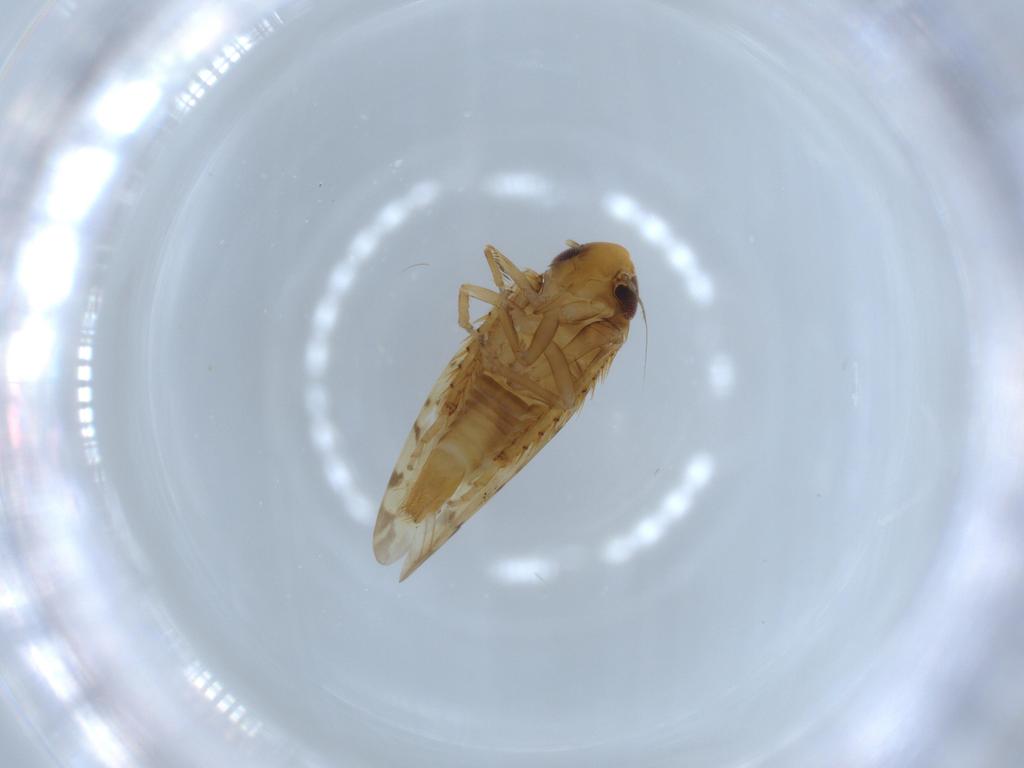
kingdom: Animalia
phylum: Arthropoda
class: Insecta
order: Hemiptera
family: Cicadellidae
